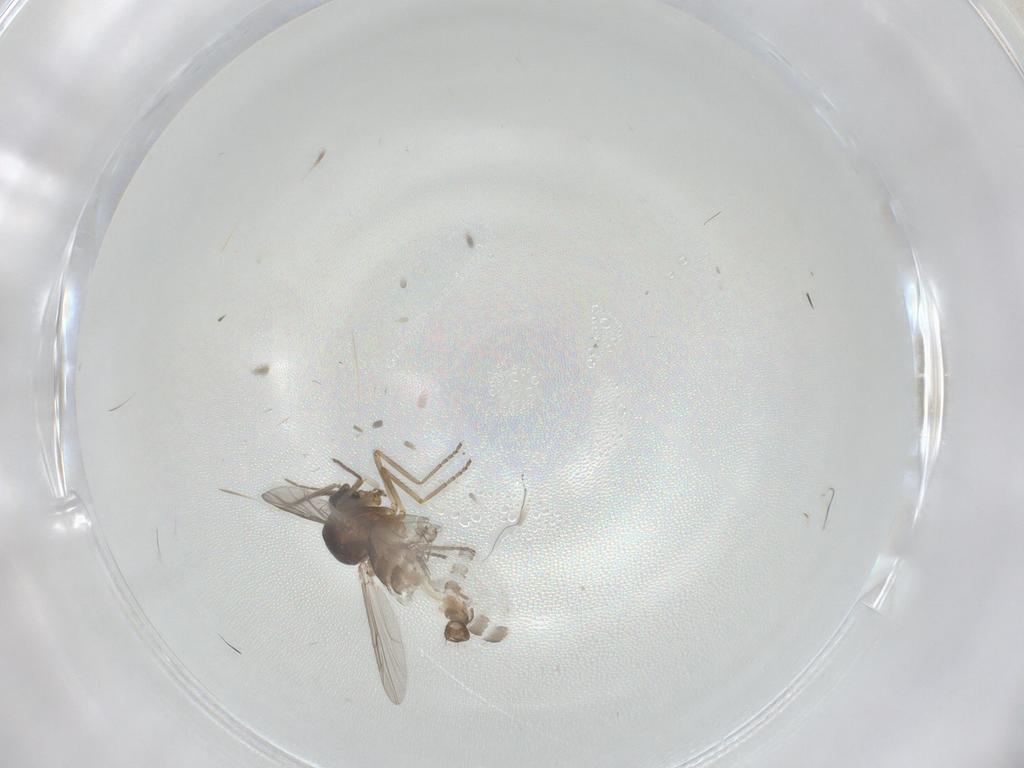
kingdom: Animalia
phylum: Arthropoda
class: Insecta
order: Diptera
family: Ceratopogonidae
